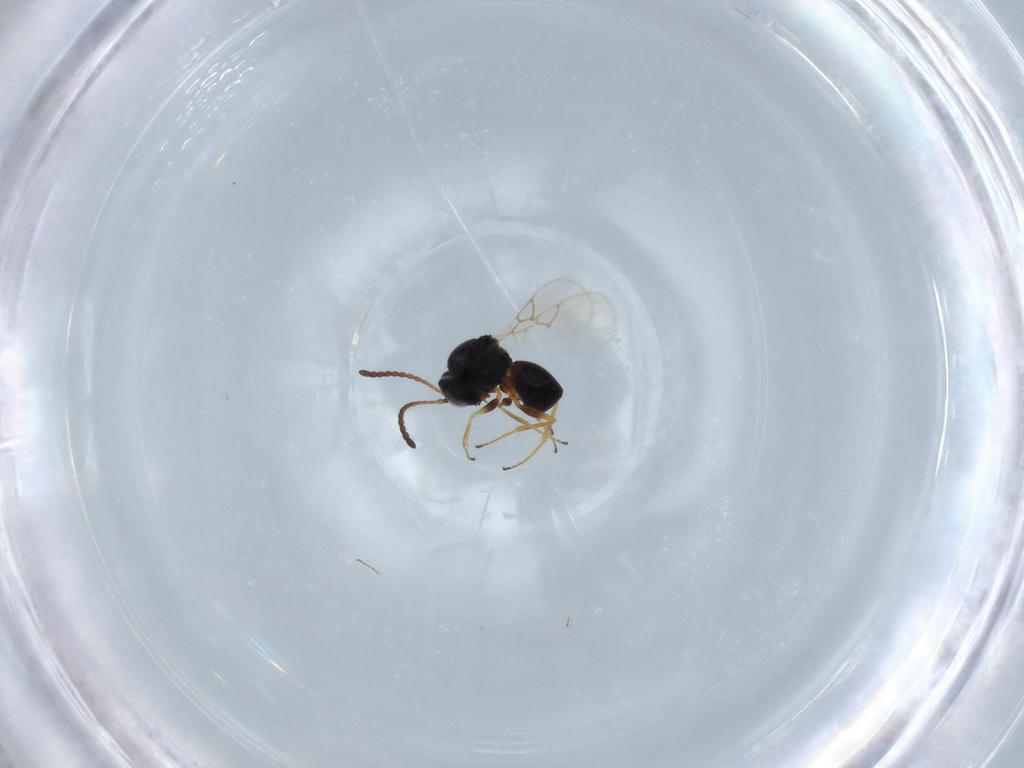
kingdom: Animalia
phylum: Arthropoda
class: Insecta
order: Hymenoptera
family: Figitidae
